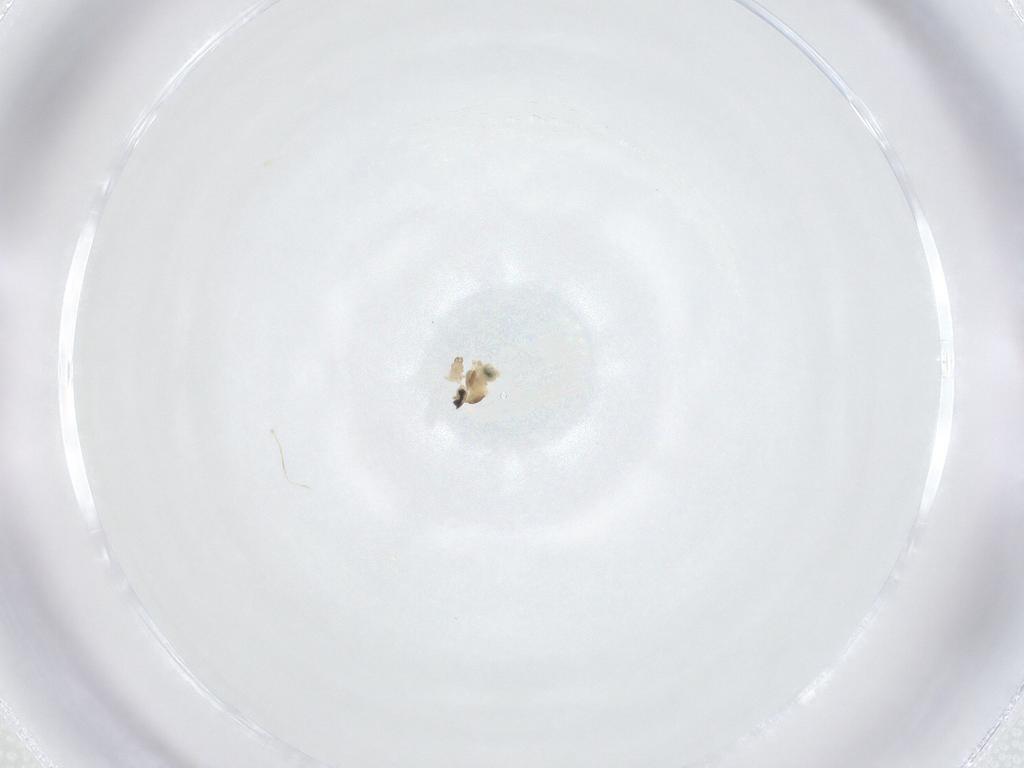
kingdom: Animalia
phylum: Arthropoda
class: Insecta
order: Diptera
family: Cecidomyiidae
